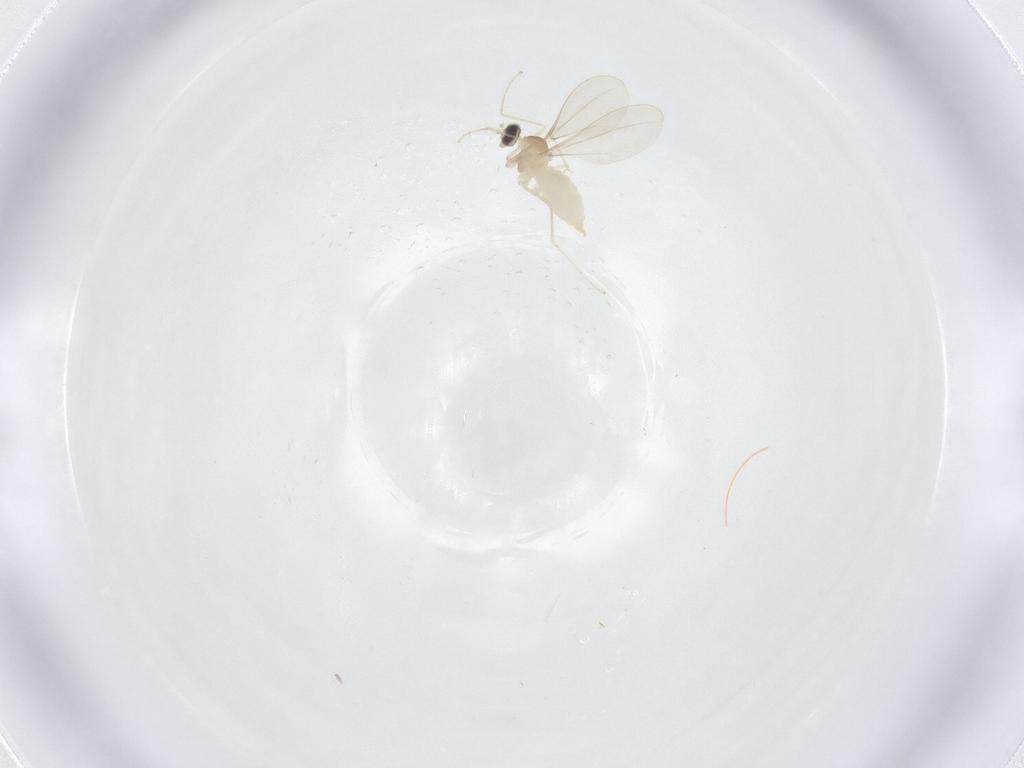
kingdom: Animalia
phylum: Arthropoda
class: Insecta
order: Diptera
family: Cecidomyiidae
